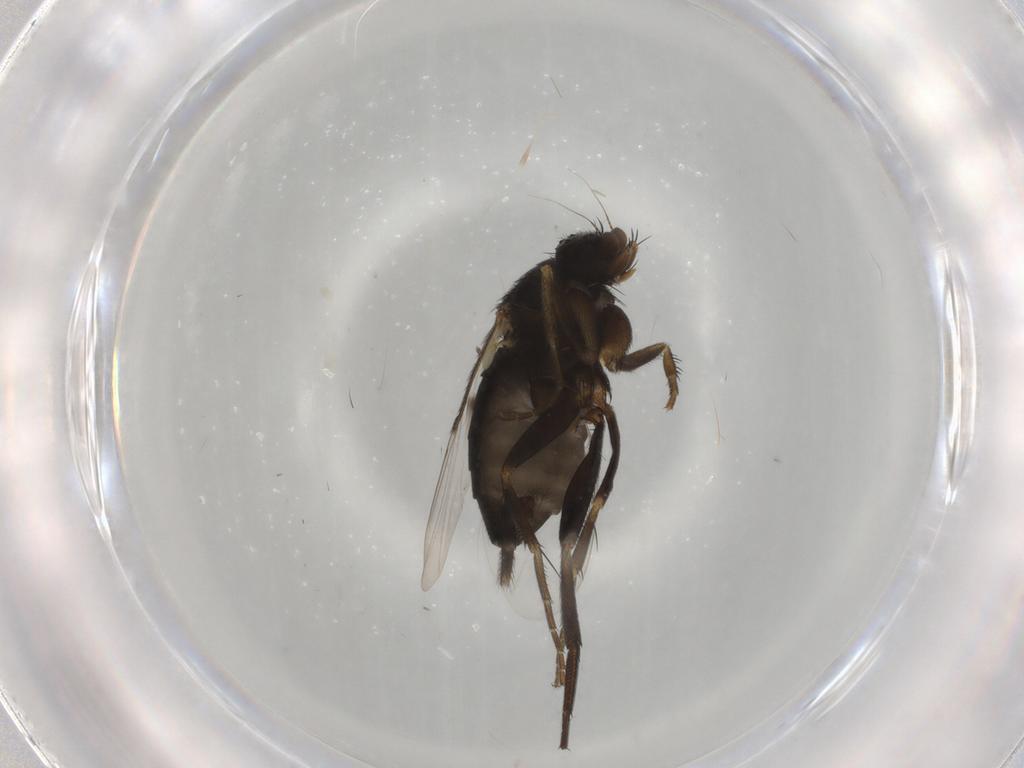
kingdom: Animalia
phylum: Arthropoda
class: Insecta
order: Diptera
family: Phoridae
